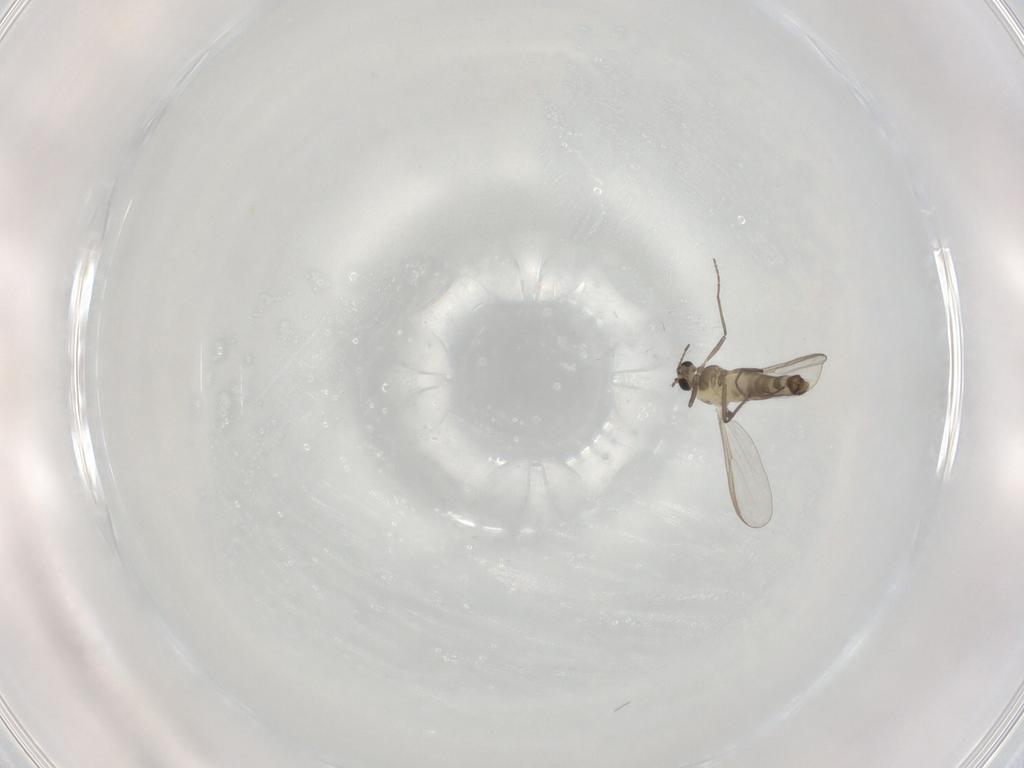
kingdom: Animalia
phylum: Arthropoda
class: Insecta
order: Diptera
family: Chironomidae
